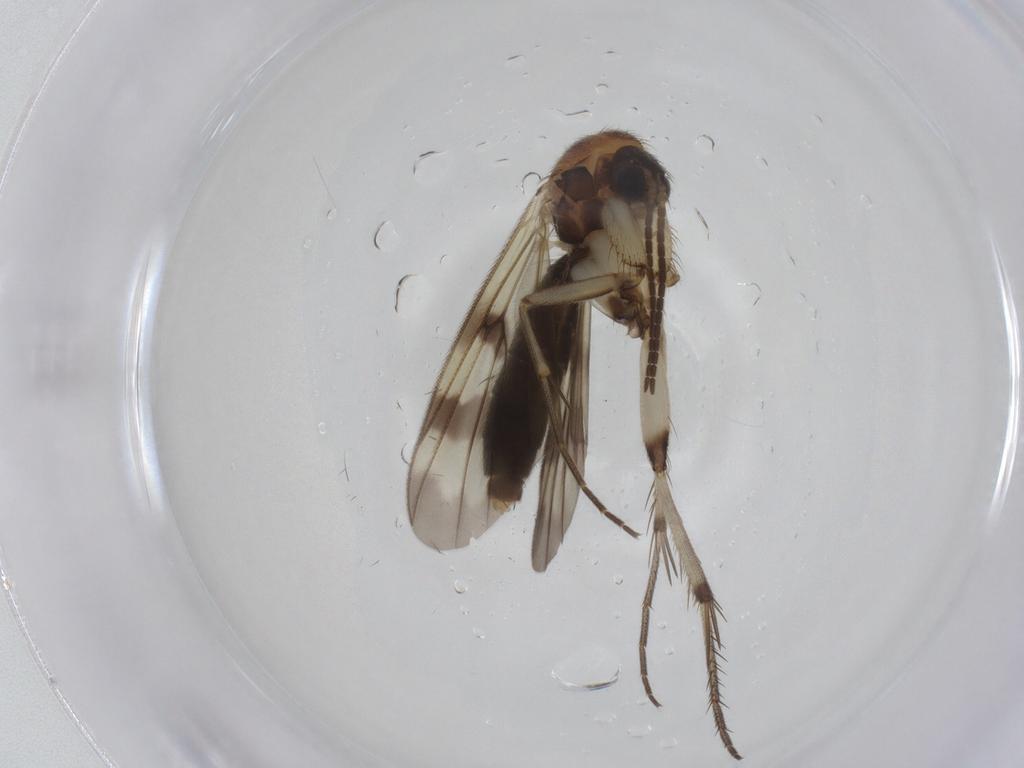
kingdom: Animalia
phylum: Arthropoda
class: Insecta
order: Diptera
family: Mycetophilidae
